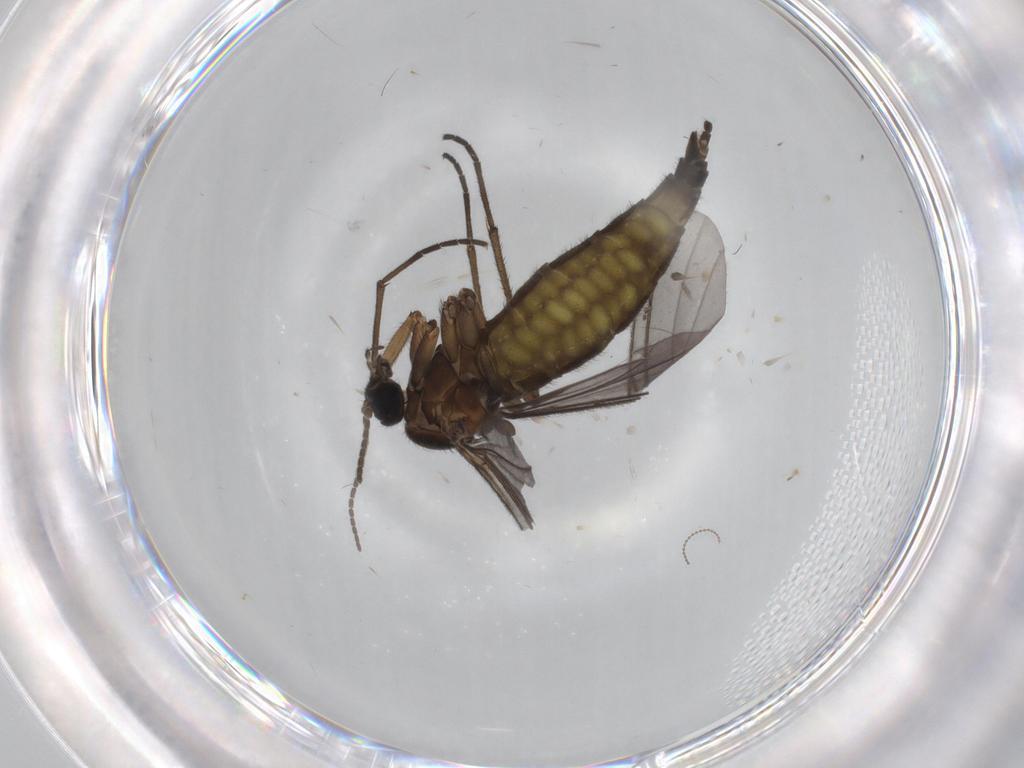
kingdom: Animalia
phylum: Arthropoda
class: Insecta
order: Diptera
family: Sciaridae
